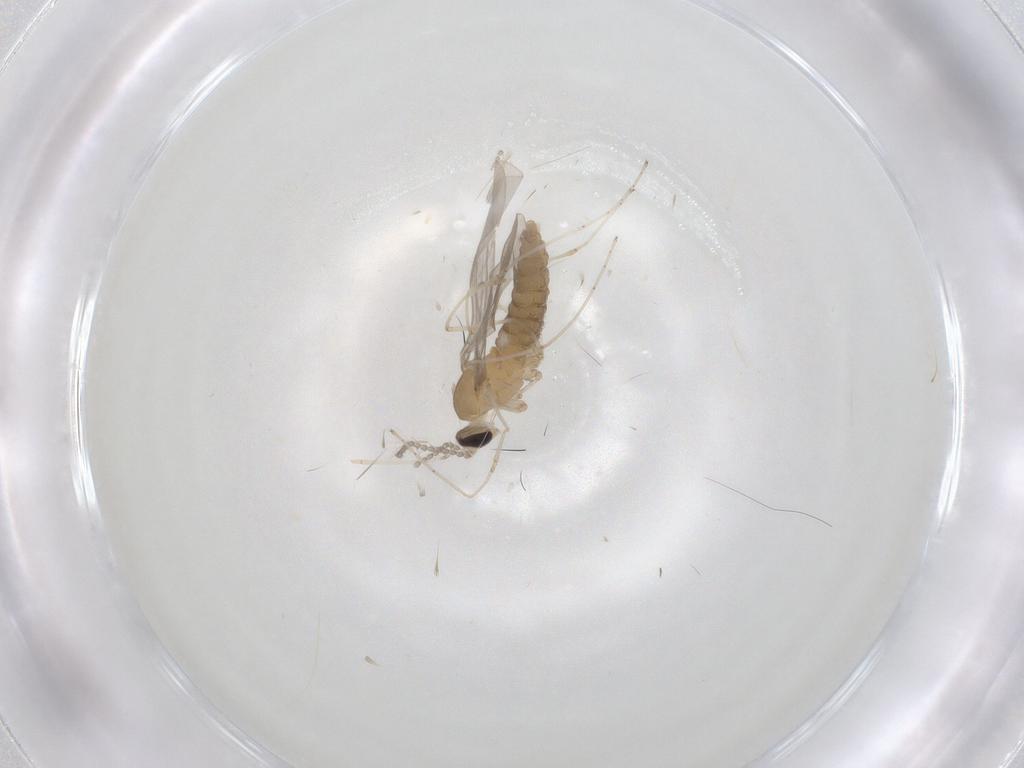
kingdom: Animalia
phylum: Arthropoda
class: Insecta
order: Diptera
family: Cecidomyiidae
